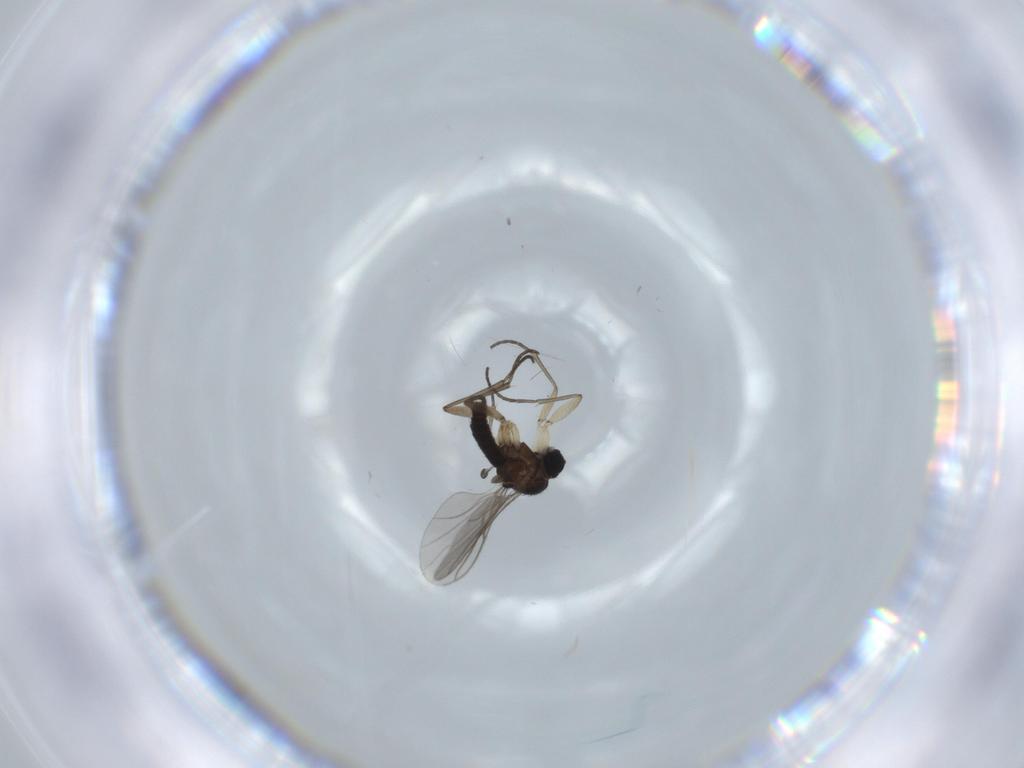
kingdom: Animalia
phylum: Arthropoda
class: Insecta
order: Diptera
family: Sciaridae
